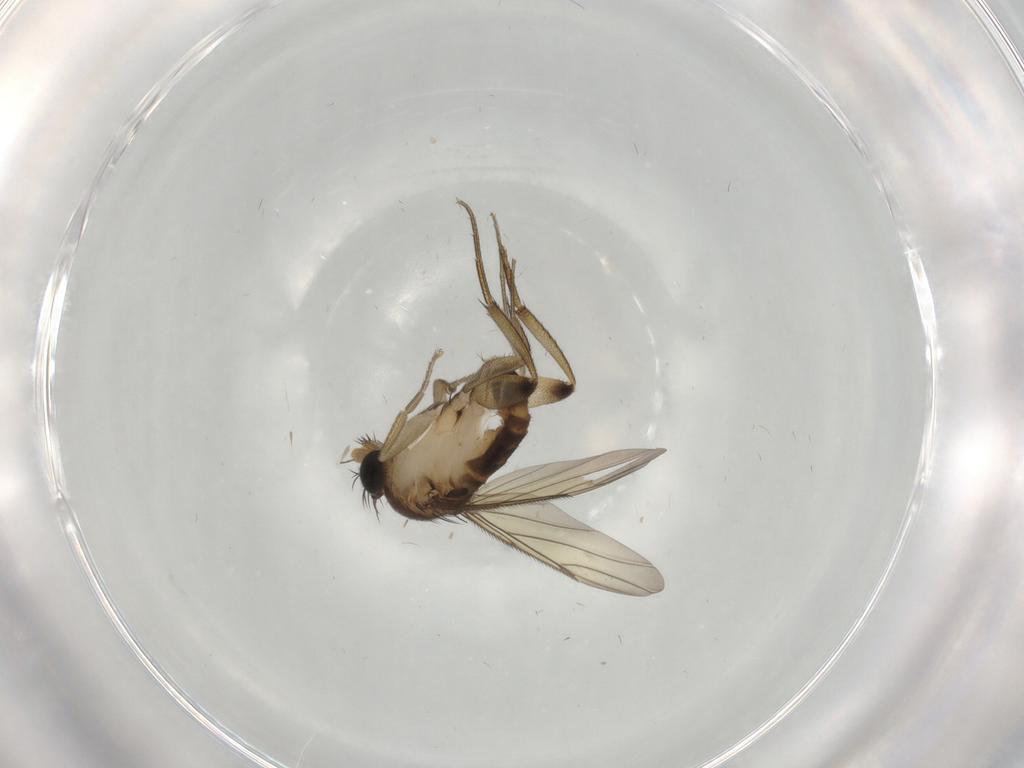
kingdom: Animalia
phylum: Arthropoda
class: Insecta
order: Diptera
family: Phoridae
